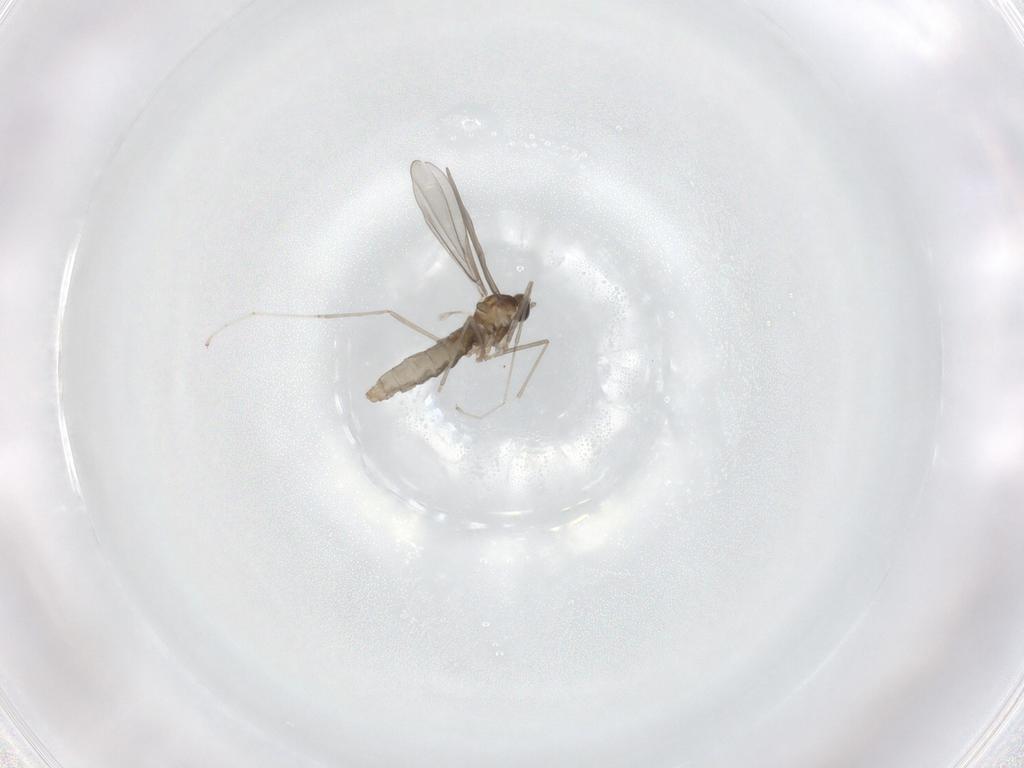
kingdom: Animalia
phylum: Arthropoda
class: Insecta
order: Diptera
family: Cecidomyiidae
